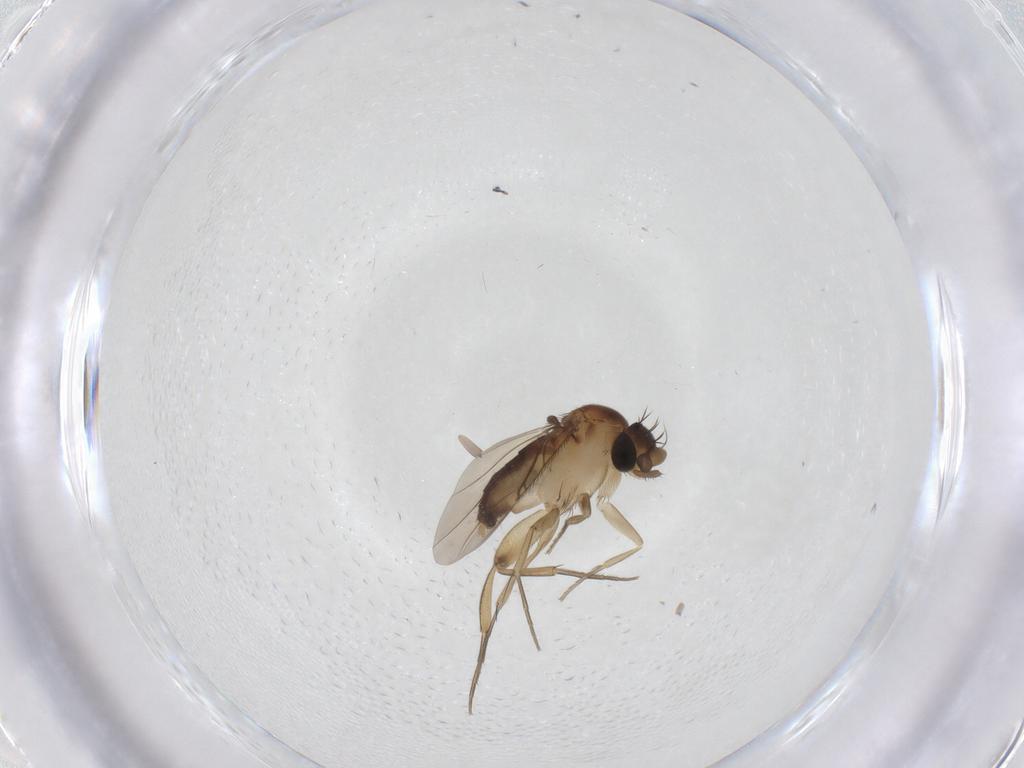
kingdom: Animalia
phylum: Arthropoda
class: Insecta
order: Diptera
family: Phoridae
